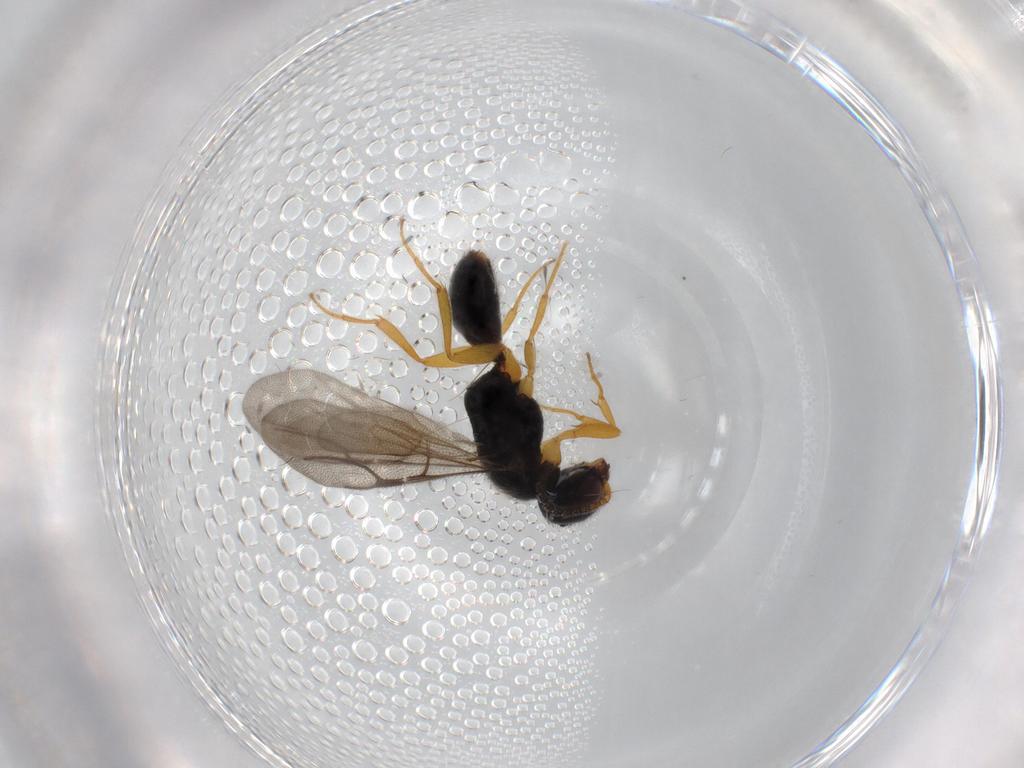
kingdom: Animalia
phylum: Arthropoda
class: Insecta
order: Hymenoptera
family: Bethylidae
